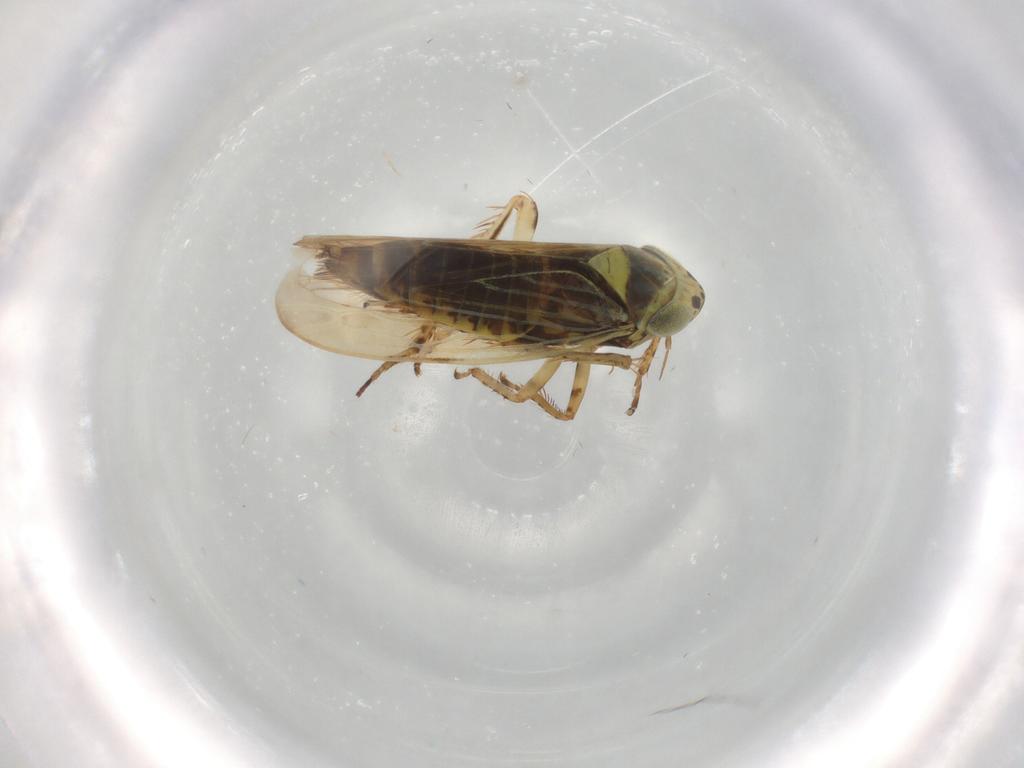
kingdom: Animalia
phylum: Arthropoda
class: Insecta
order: Hemiptera
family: Cicadellidae
